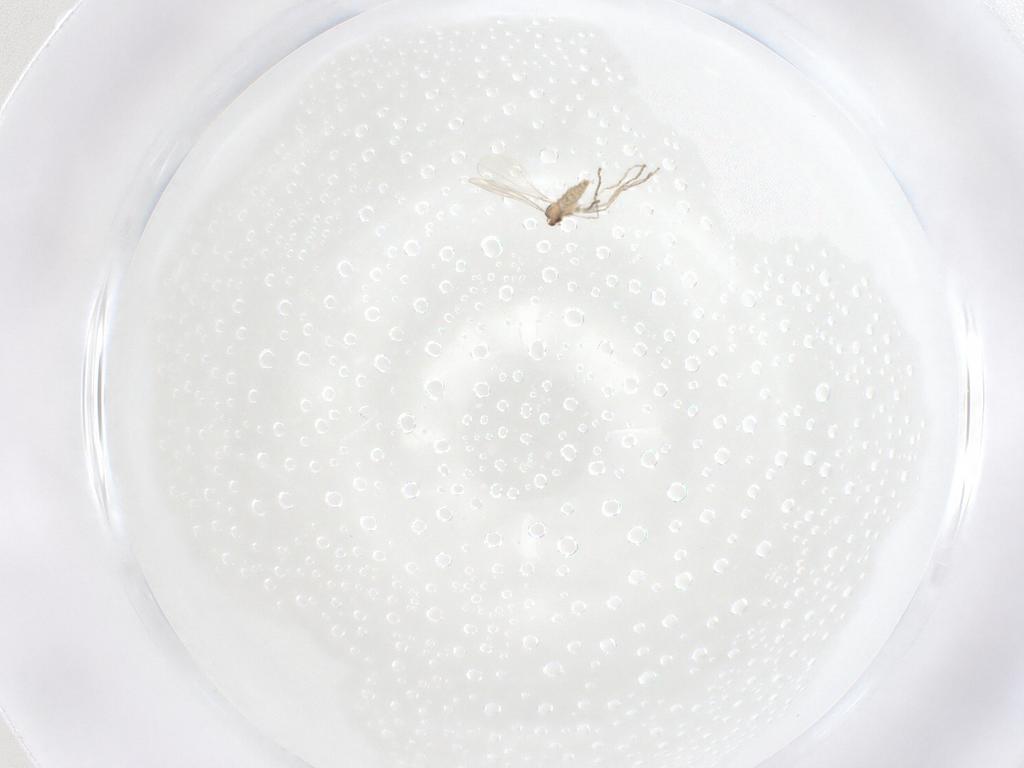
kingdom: Animalia
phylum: Arthropoda
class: Insecta
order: Diptera
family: Cecidomyiidae
